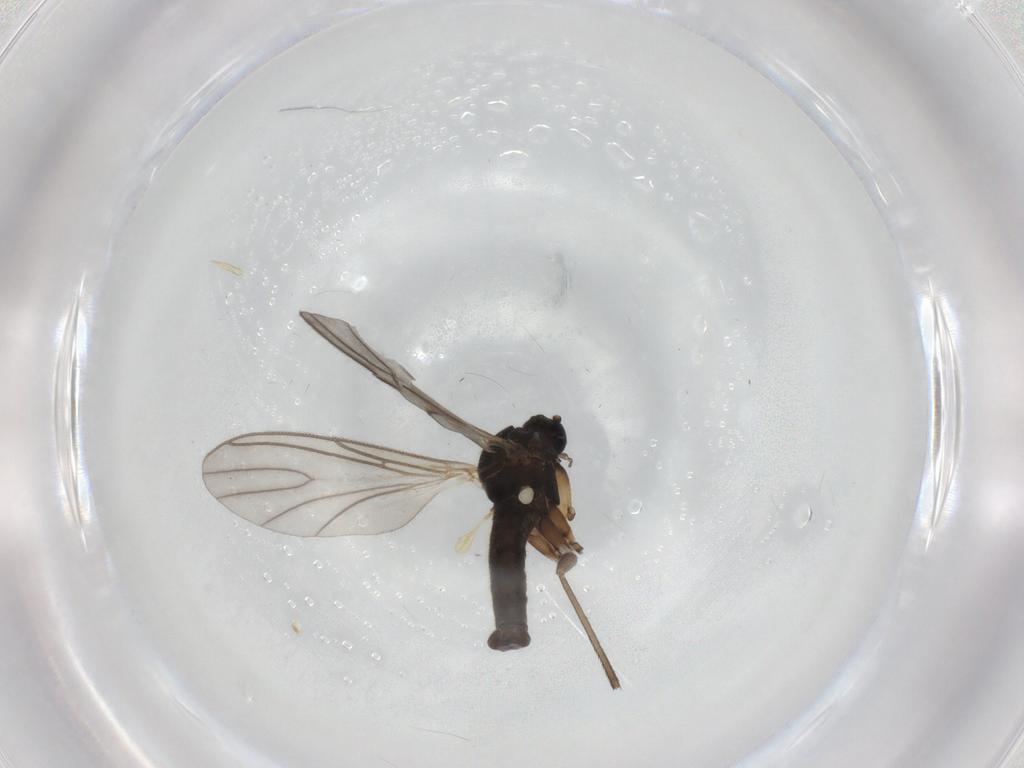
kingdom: Animalia
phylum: Arthropoda
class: Insecta
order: Diptera
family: Sciaridae
